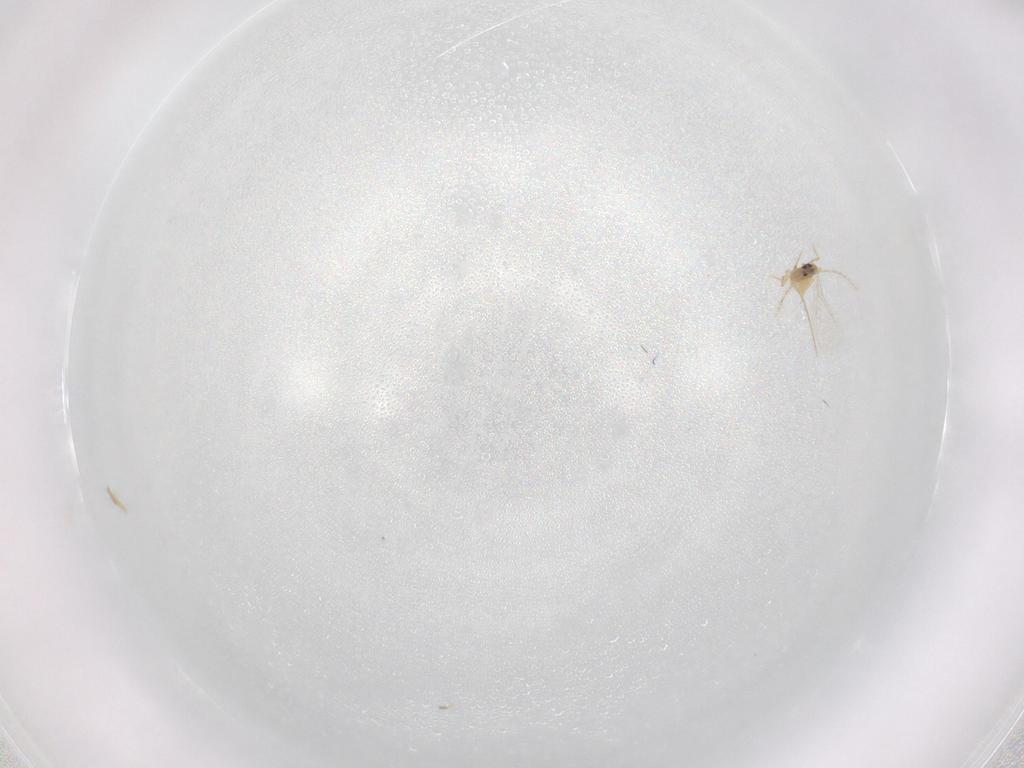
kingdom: Animalia
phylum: Arthropoda
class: Insecta
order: Diptera
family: Cecidomyiidae
